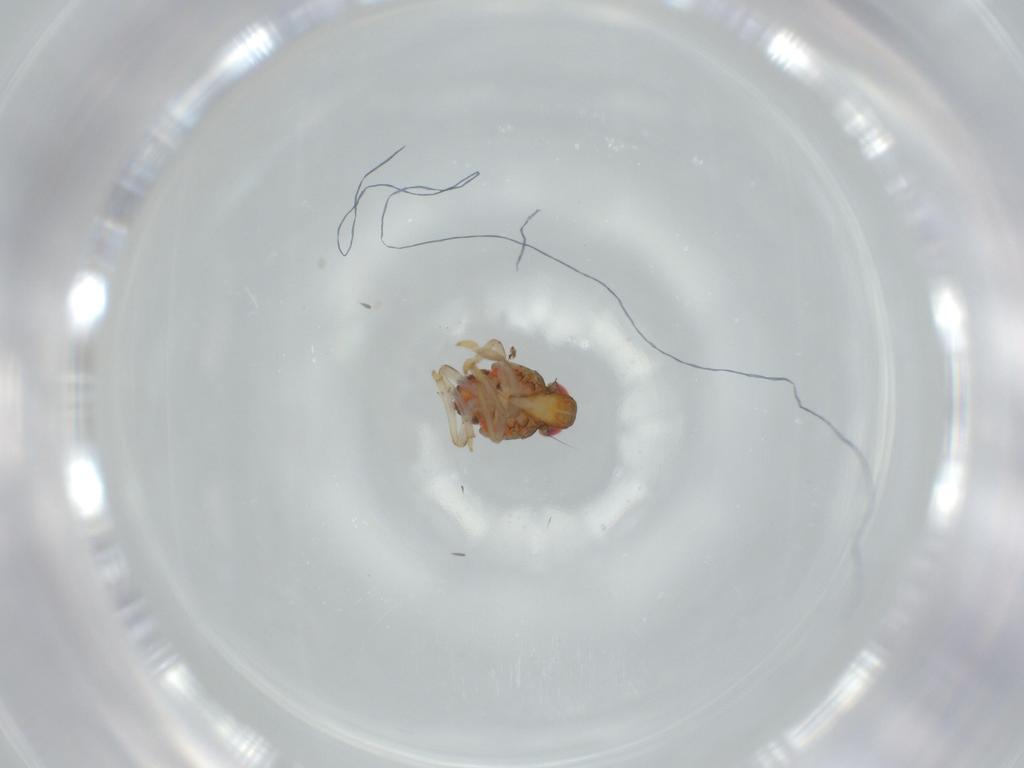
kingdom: Animalia
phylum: Arthropoda
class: Insecta
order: Hemiptera
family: Issidae
